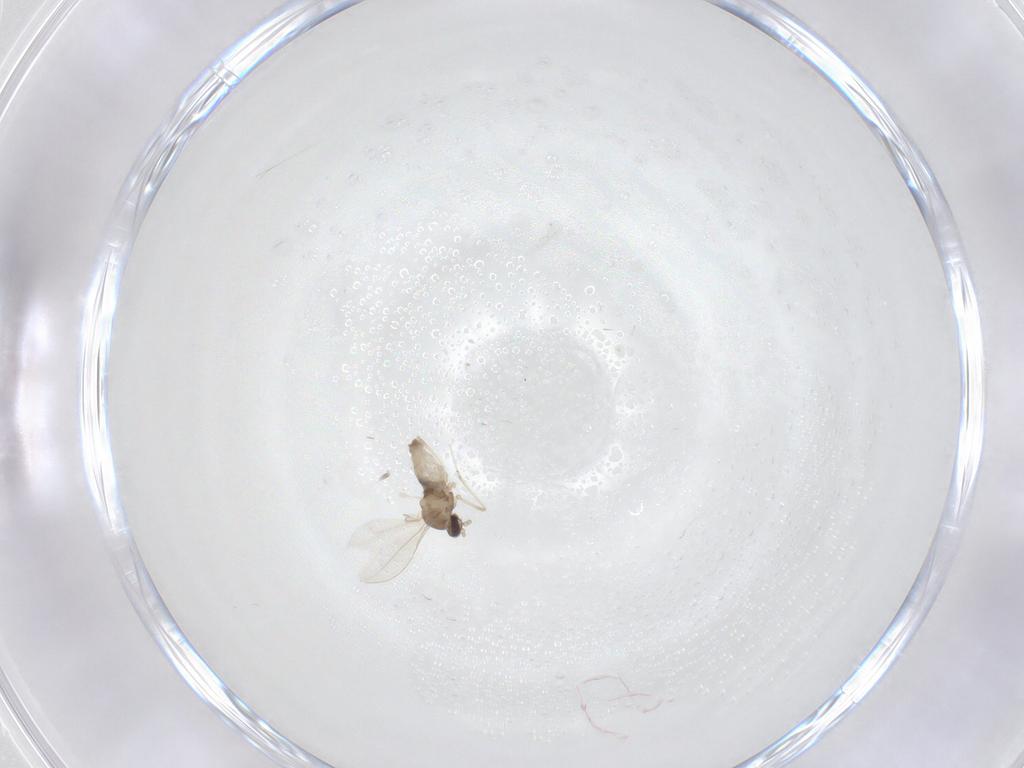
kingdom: Animalia
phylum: Arthropoda
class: Insecta
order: Diptera
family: Cecidomyiidae
